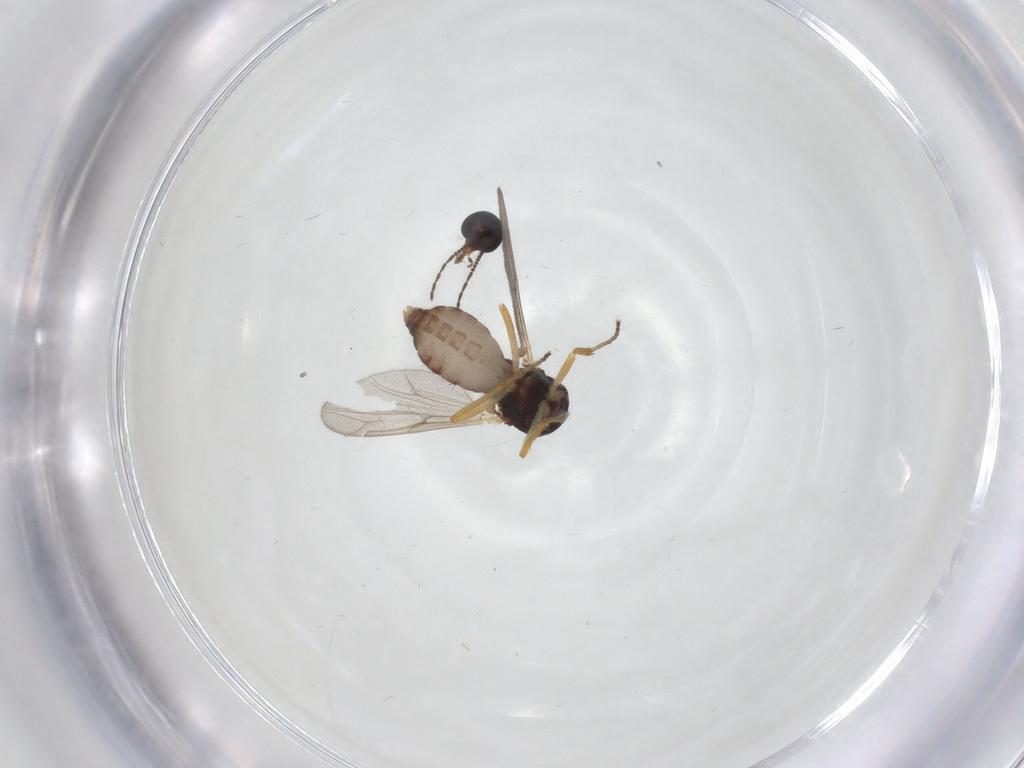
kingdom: Animalia
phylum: Arthropoda
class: Insecta
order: Diptera
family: Ceratopogonidae
